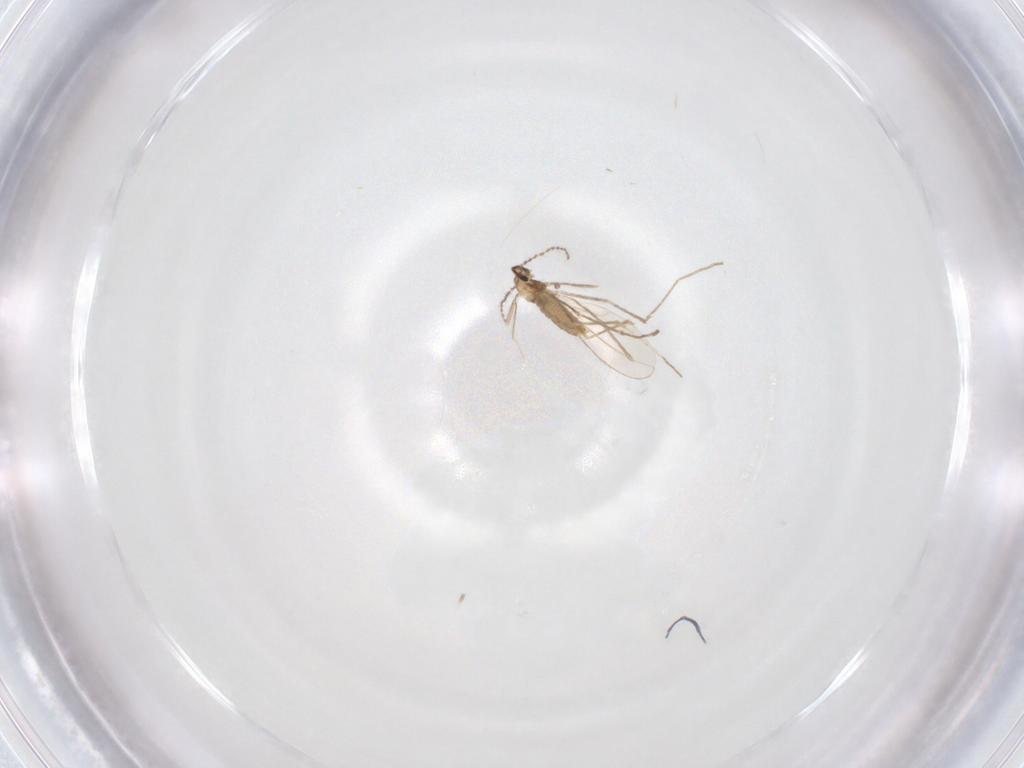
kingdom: Animalia
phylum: Arthropoda
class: Insecta
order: Diptera
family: Cecidomyiidae
